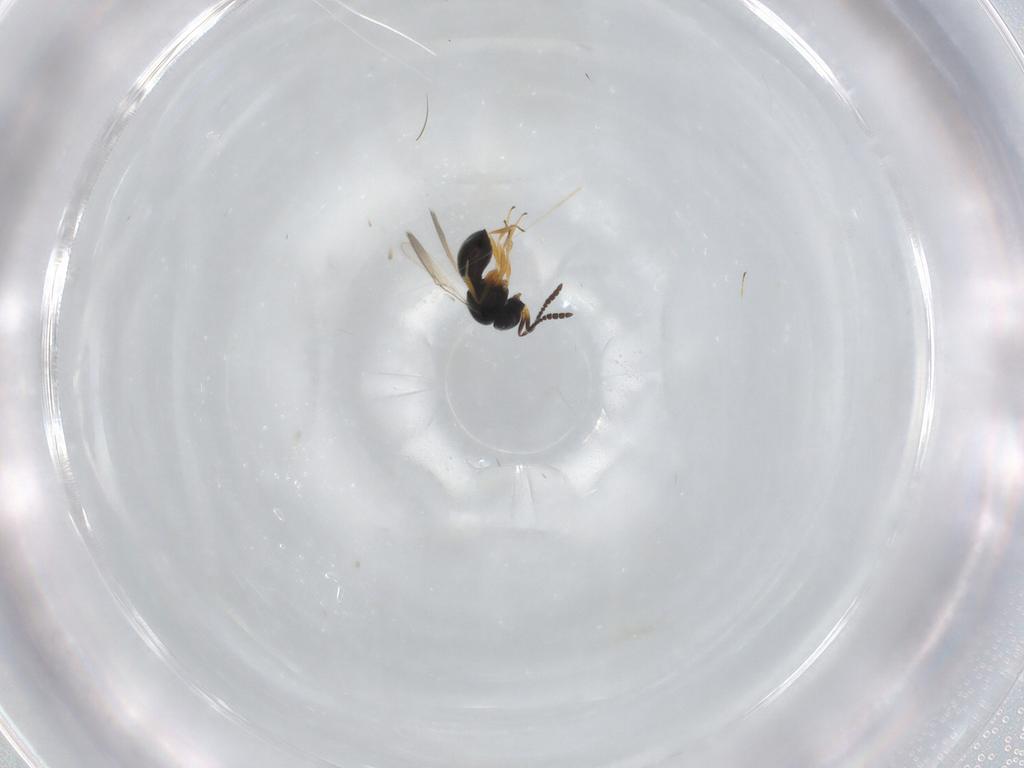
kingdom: Animalia
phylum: Arthropoda
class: Insecta
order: Hymenoptera
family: Braconidae
